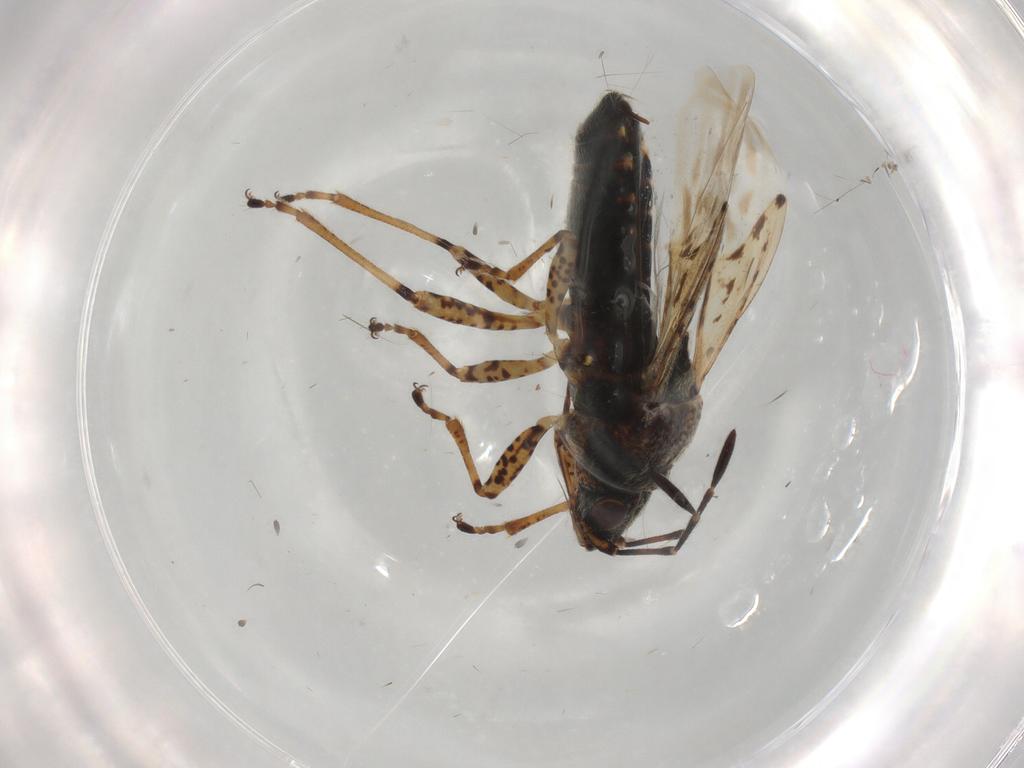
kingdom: Animalia
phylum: Arthropoda
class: Insecta
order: Hemiptera
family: Lygaeidae
